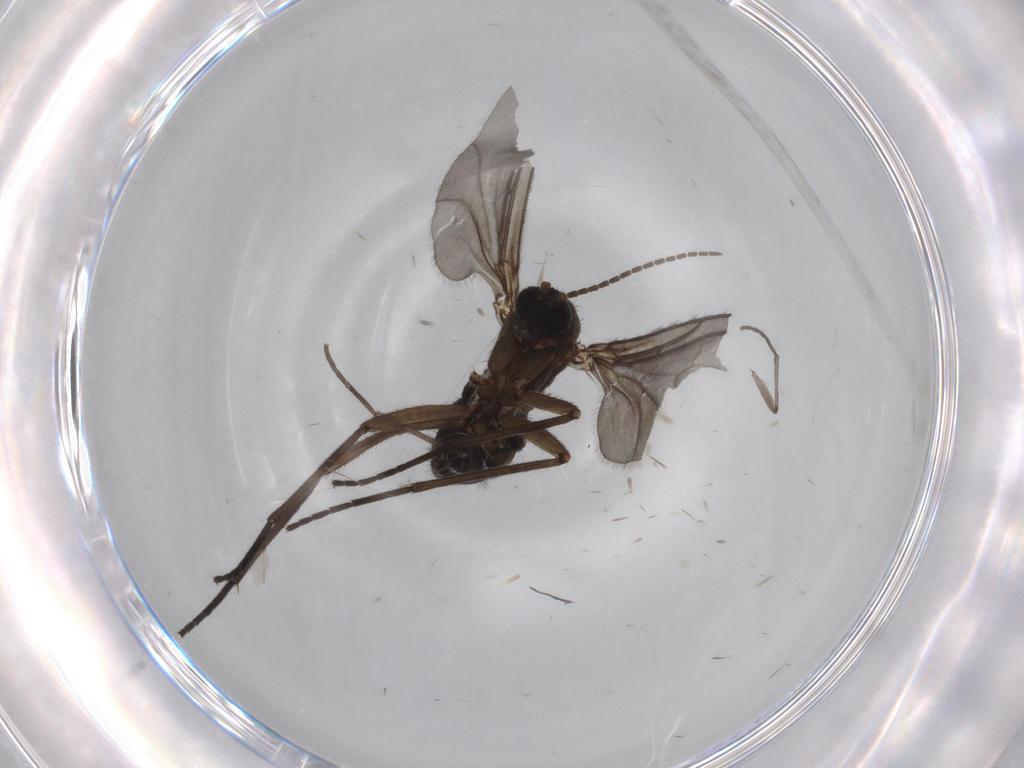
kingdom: Animalia
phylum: Arthropoda
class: Insecta
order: Diptera
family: Sciaridae
